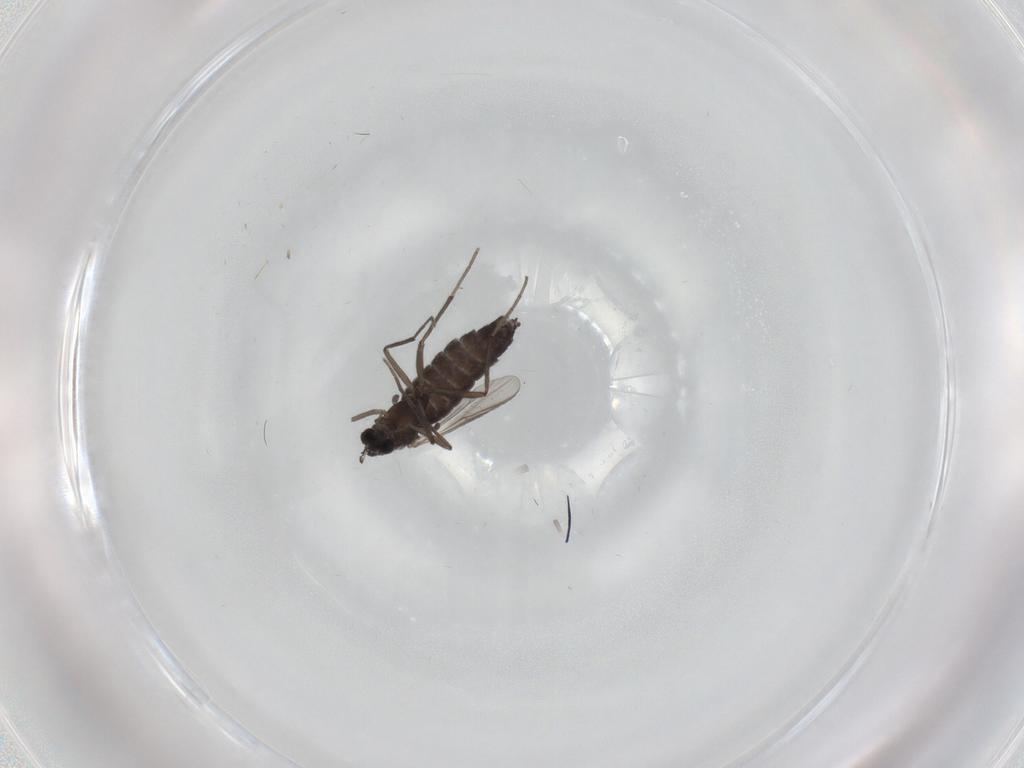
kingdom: Animalia
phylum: Arthropoda
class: Insecta
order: Diptera
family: Chironomidae
